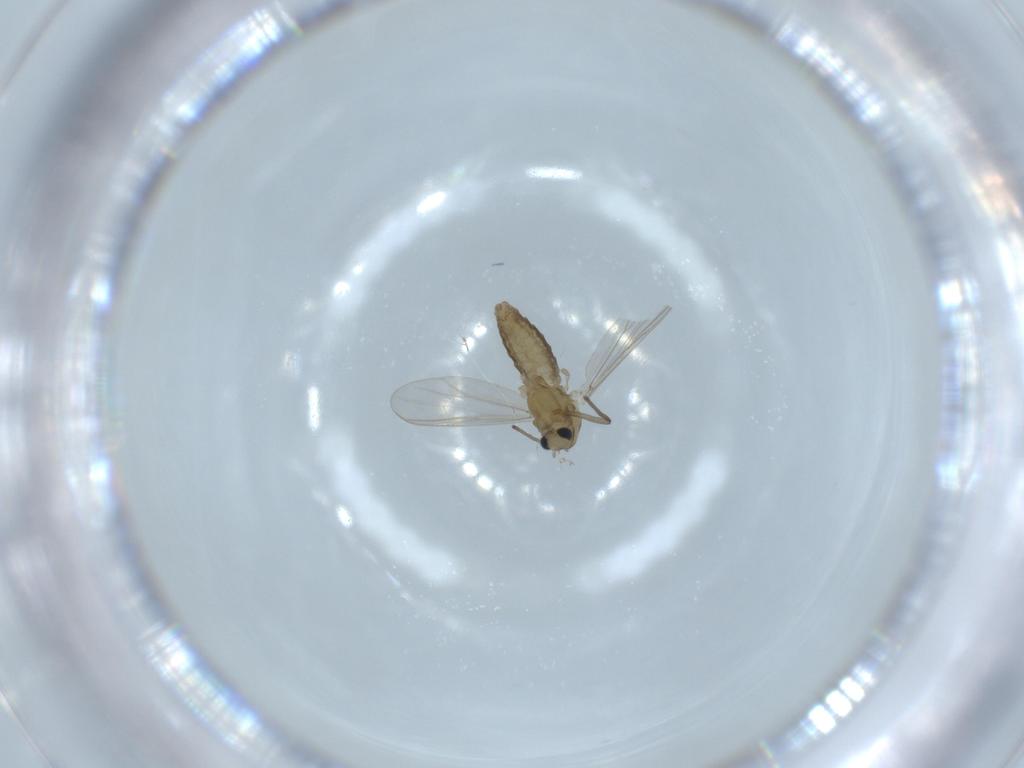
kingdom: Animalia
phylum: Arthropoda
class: Insecta
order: Diptera
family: Chironomidae
